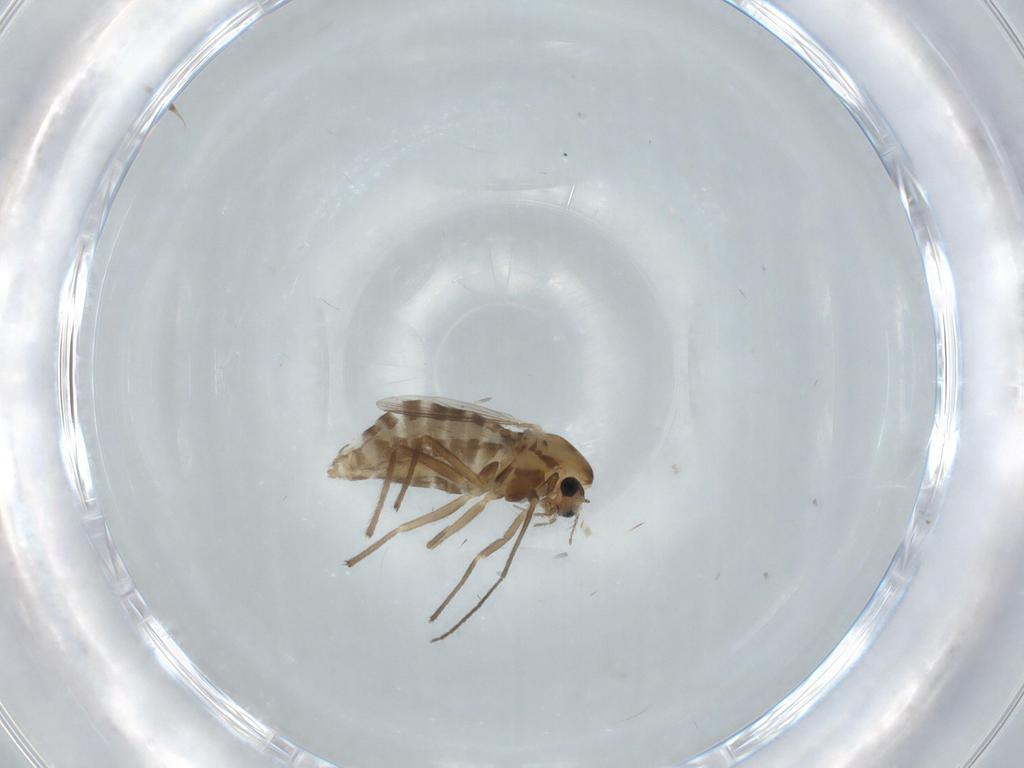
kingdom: Animalia
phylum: Arthropoda
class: Insecta
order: Diptera
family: Chironomidae
